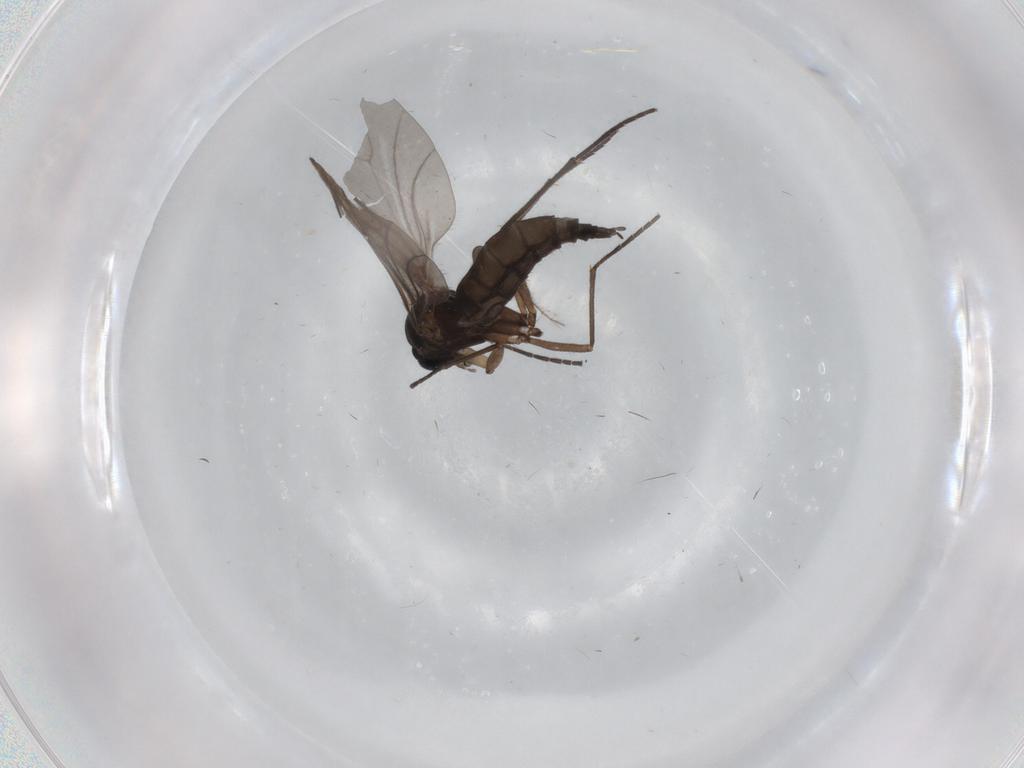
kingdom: Animalia
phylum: Arthropoda
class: Insecta
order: Diptera
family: Sciaridae
